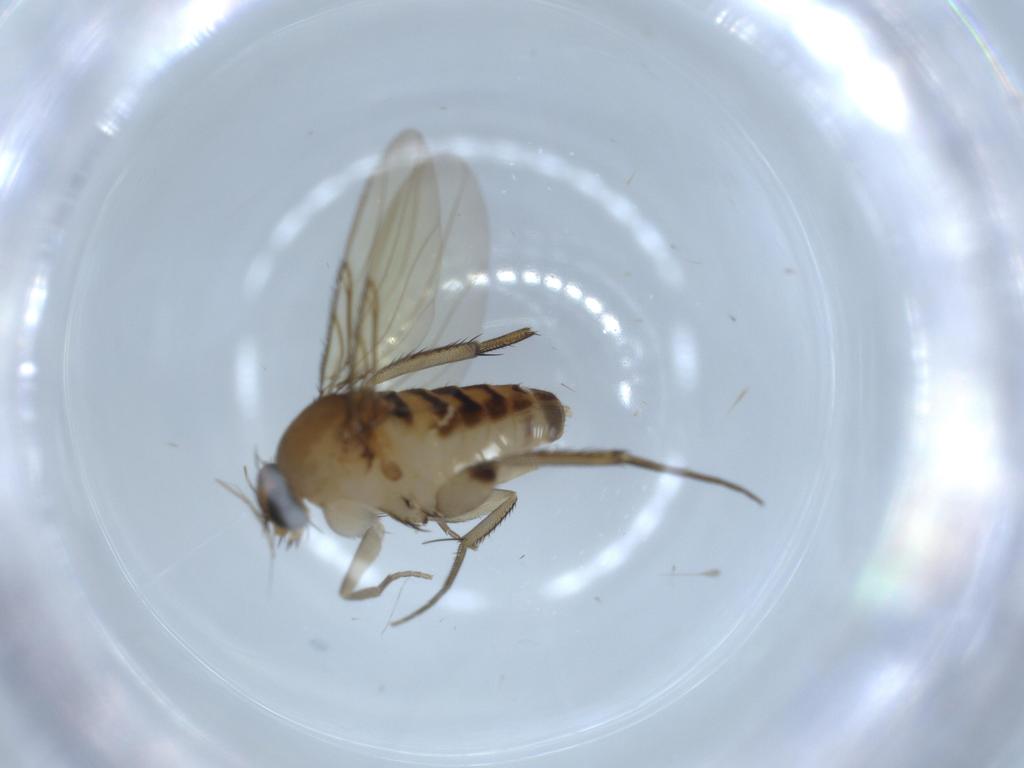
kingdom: Animalia
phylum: Arthropoda
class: Insecta
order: Diptera
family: Phoridae
